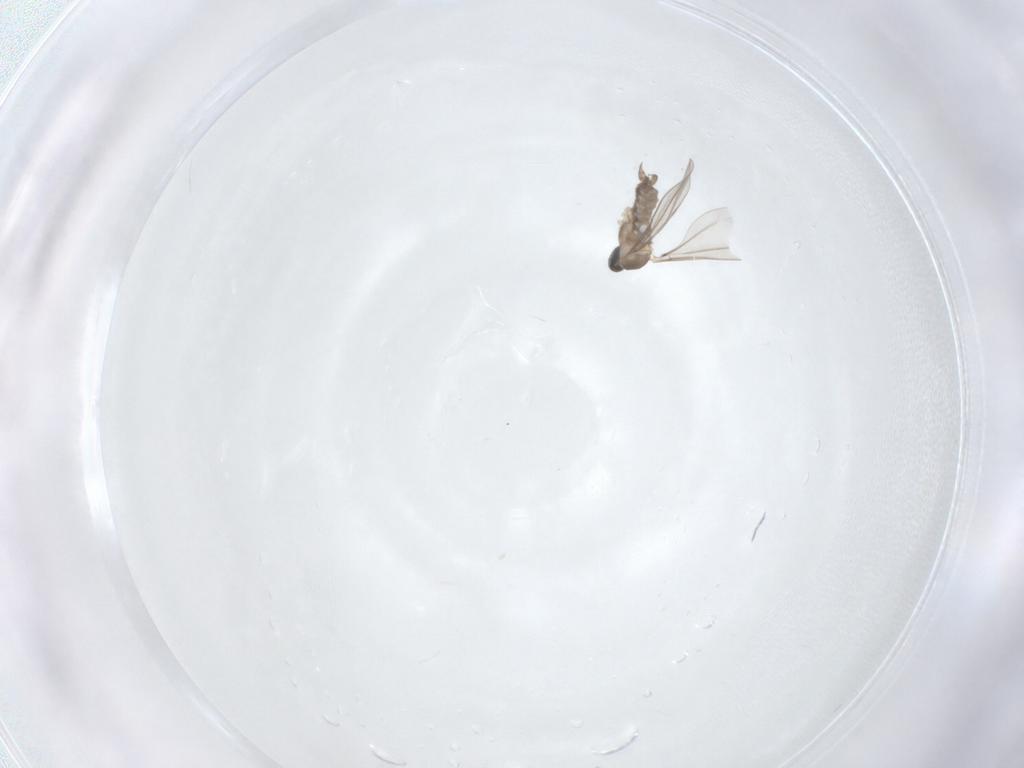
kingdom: Animalia
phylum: Arthropoda
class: Insecta
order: Diptera
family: Cecidomyiidae
